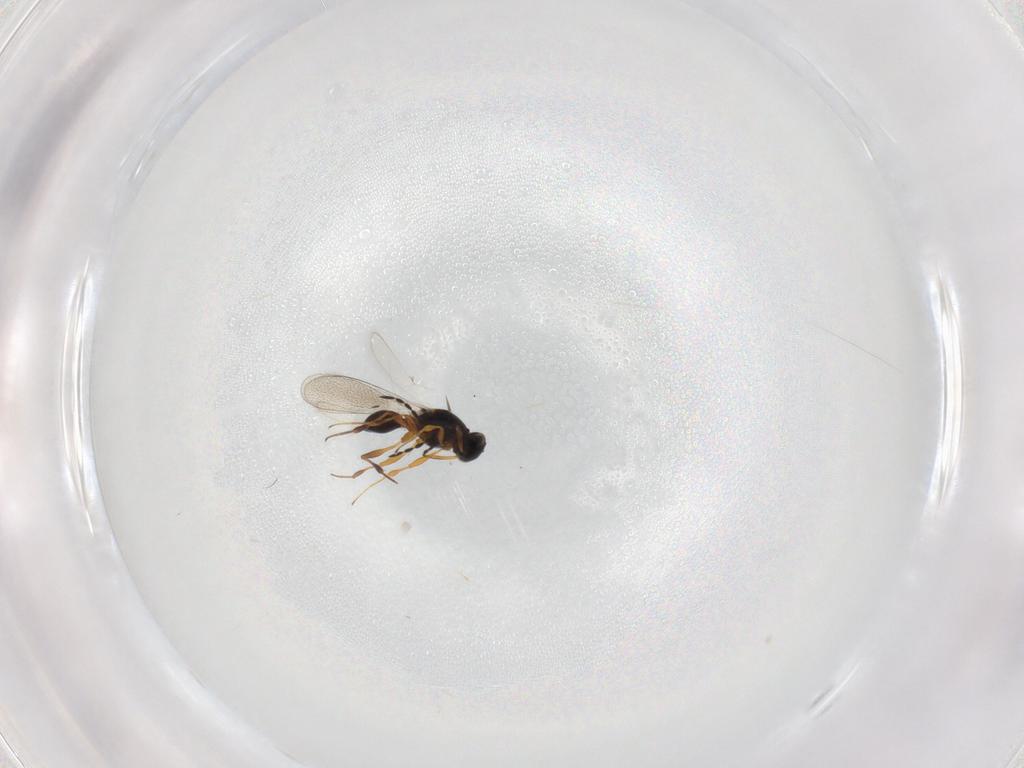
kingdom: Animalia
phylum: Arthropoda
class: Insecta
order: Hymenoptera
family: Platygastridae
